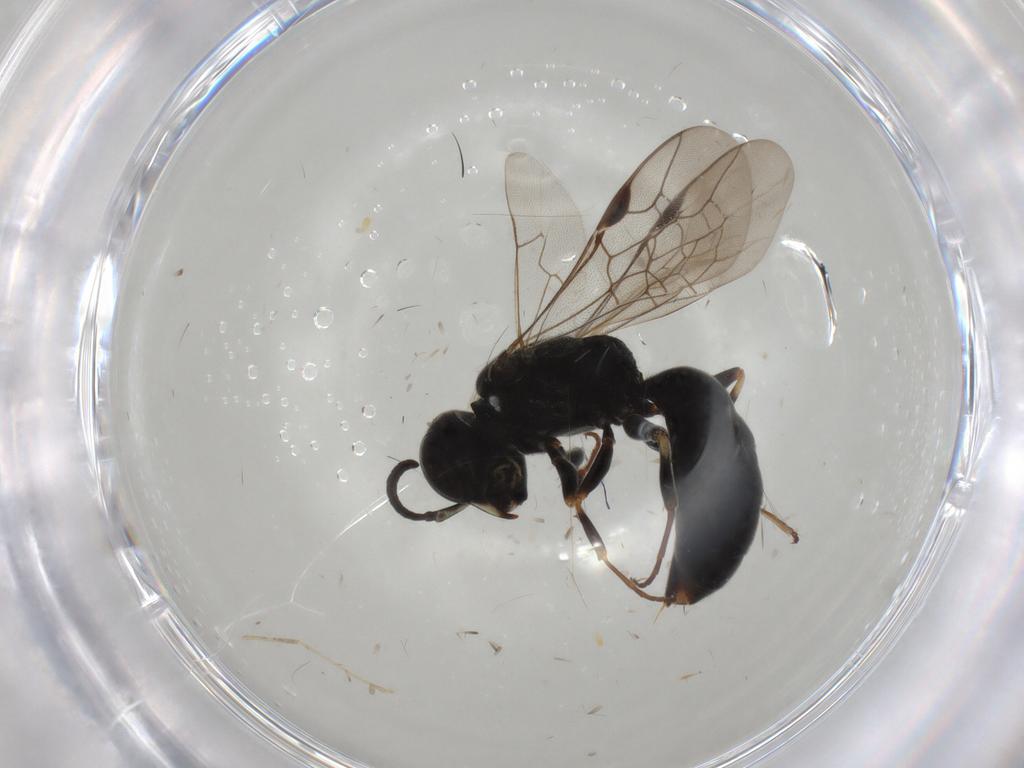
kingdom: Animalia
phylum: Arthropoda
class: Insecta
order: Hymenoptera
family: Pemphredonidae
